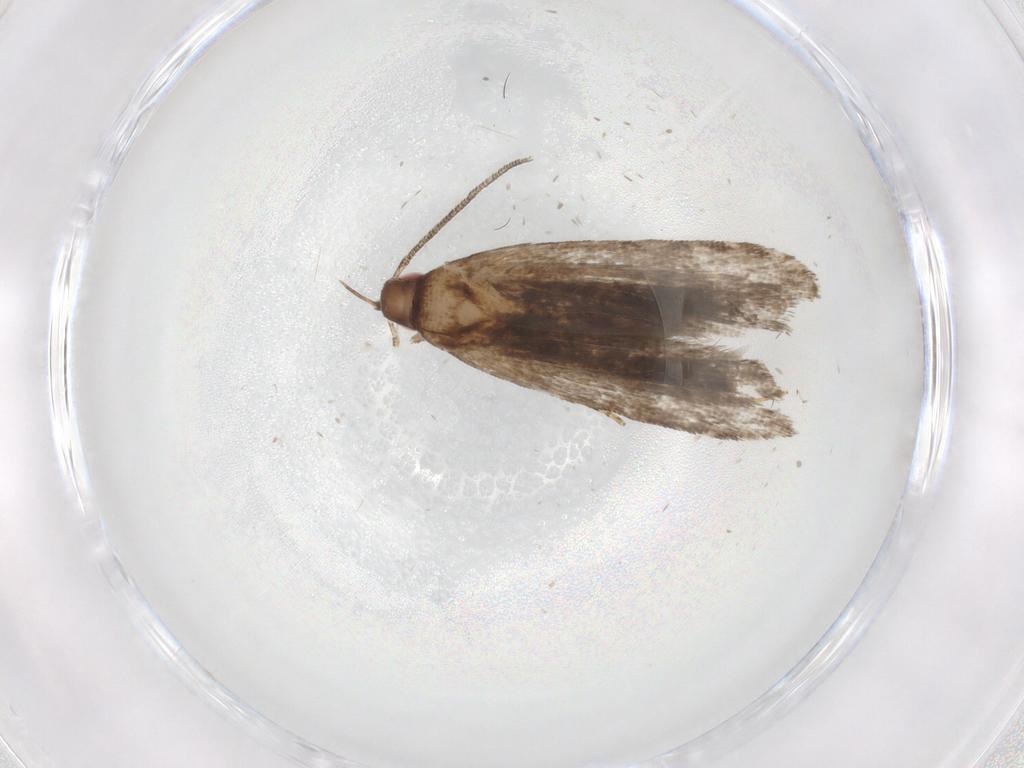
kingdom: Animalia
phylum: Arthropoda
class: Insecta
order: Lepidoptera
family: Gelechiidae
